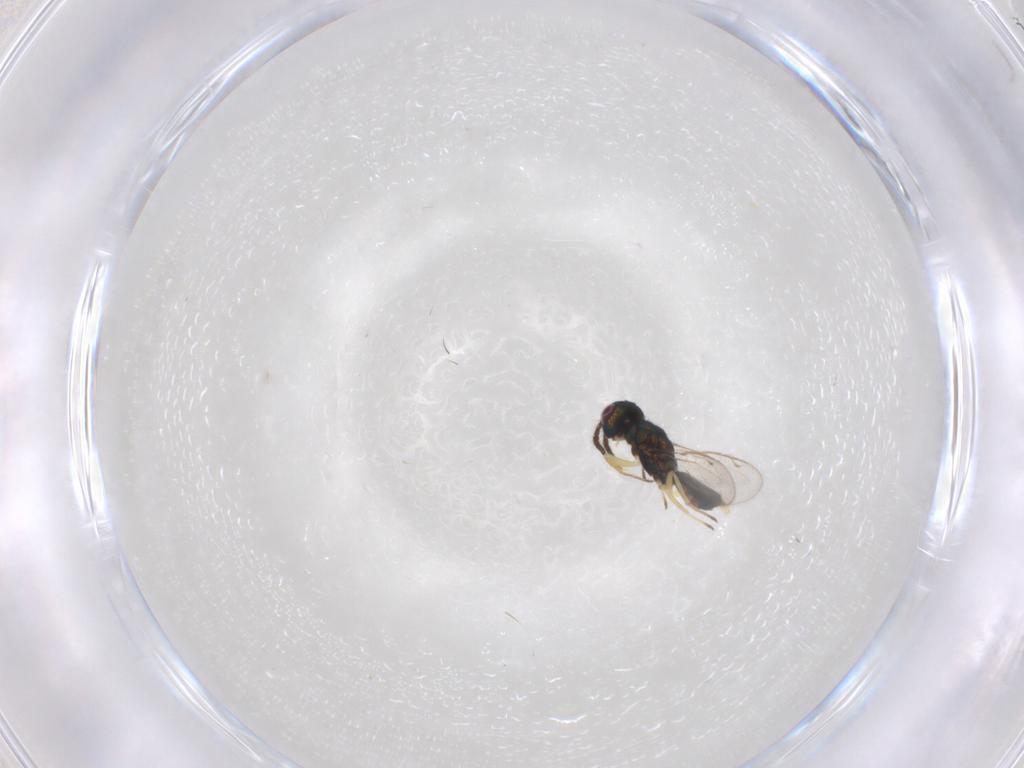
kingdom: Animalia
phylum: Arthropoda
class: Insecta
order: Hymenoptera
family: Eupelmidae
